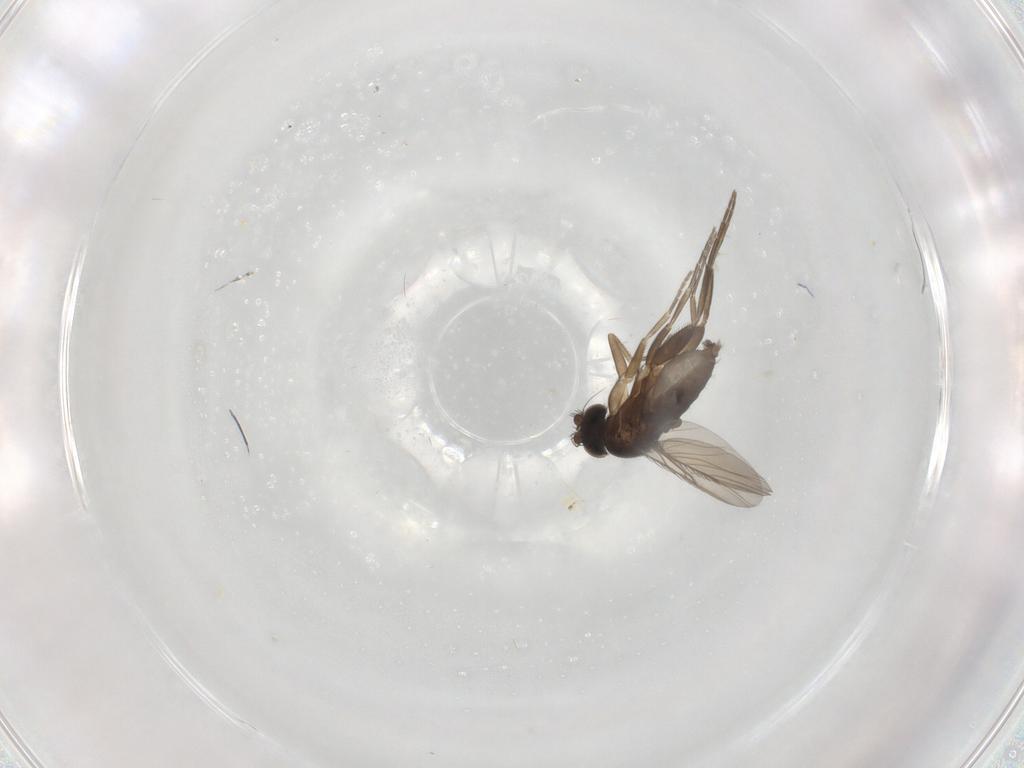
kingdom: Animalia
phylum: Arthropoda
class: Insecta
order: Diptera
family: Phoridae
